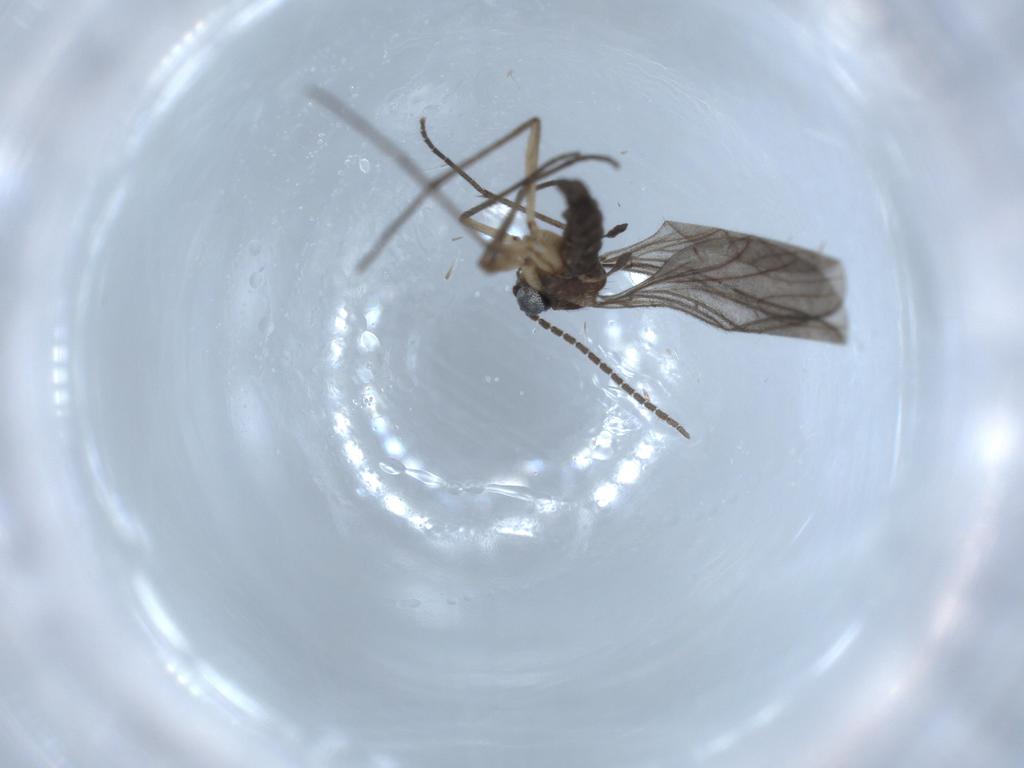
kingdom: Animalia
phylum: Arthropoda
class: Insecta
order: Diptera
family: Sciaridae
